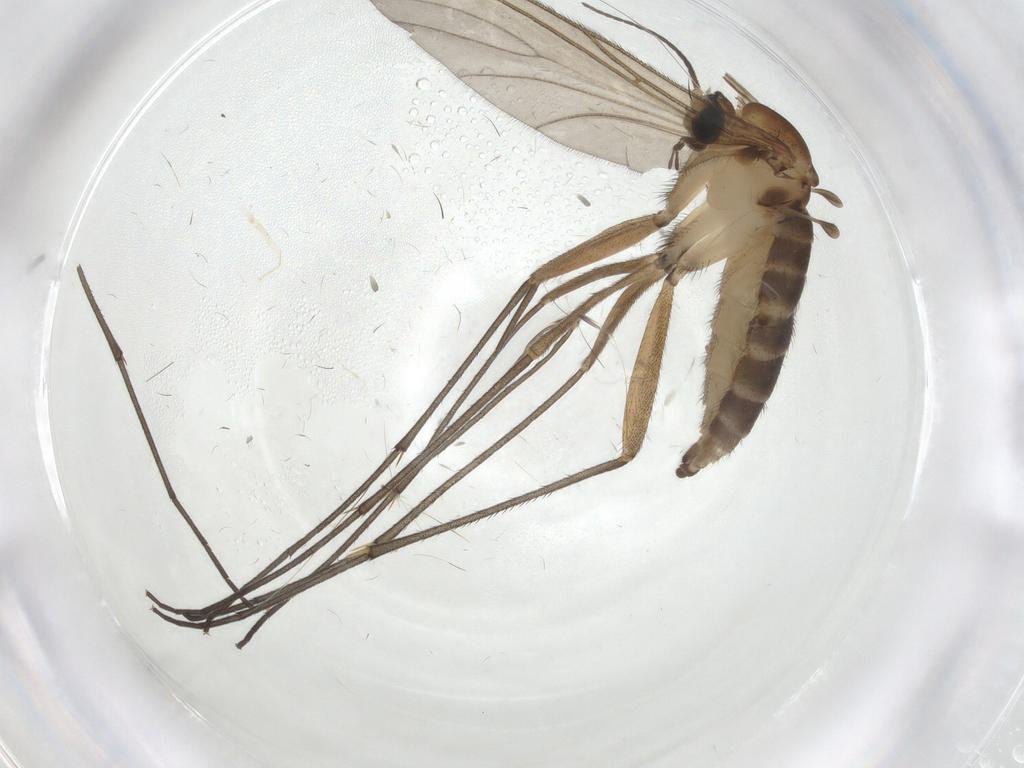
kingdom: Animalia
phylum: Arthropoda
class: Insecta
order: Diptera
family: Sciaridae
